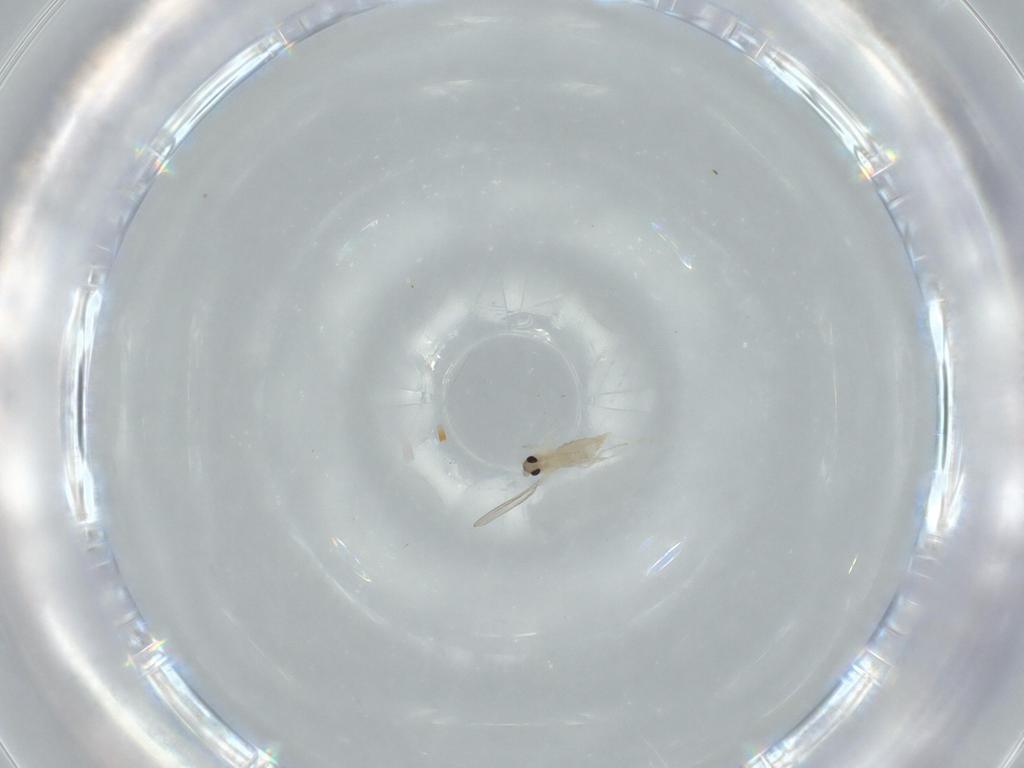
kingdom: Animalia
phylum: Arthropoda
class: Insecta
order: Diptera
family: Cecidomyiidae
